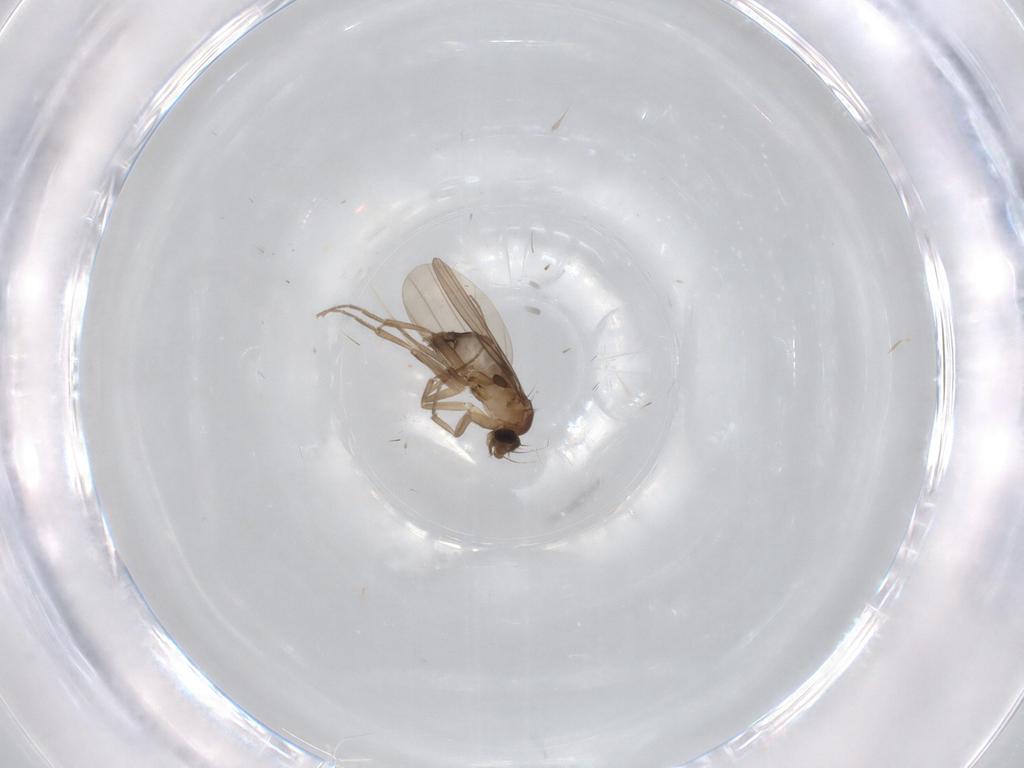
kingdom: Animalia
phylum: Arthropoda
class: Insecta
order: Diptera
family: Phoridae
